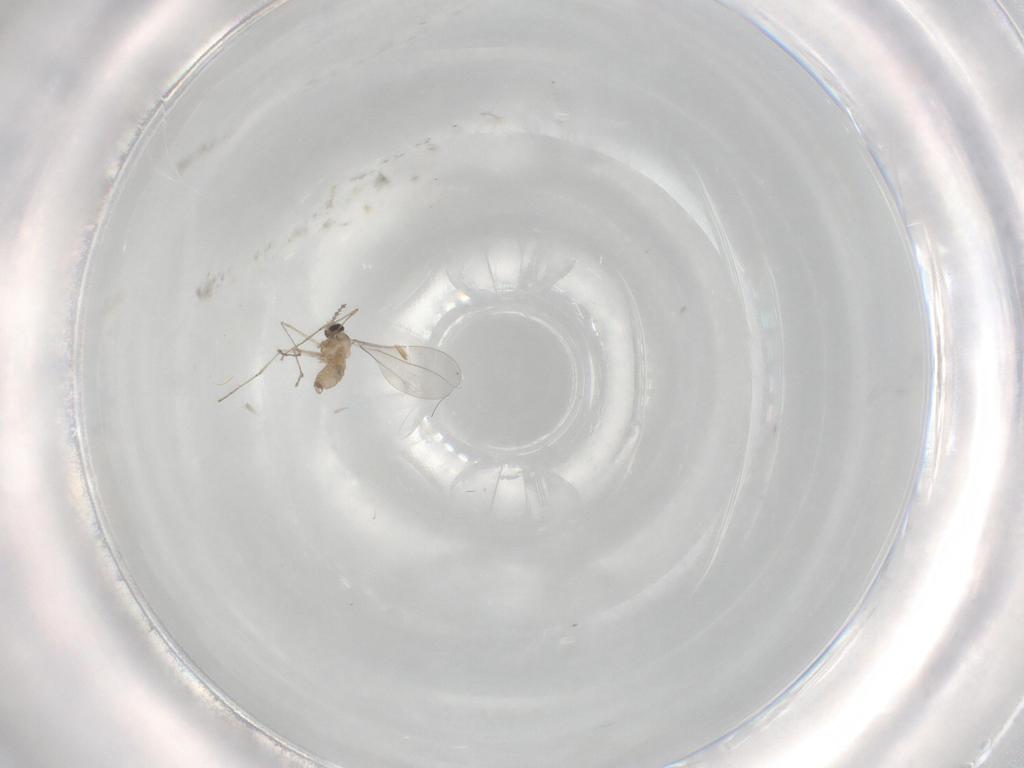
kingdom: Animalia
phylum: Arthropoda
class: Insecta
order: Diptera
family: Cecidomyiidae
